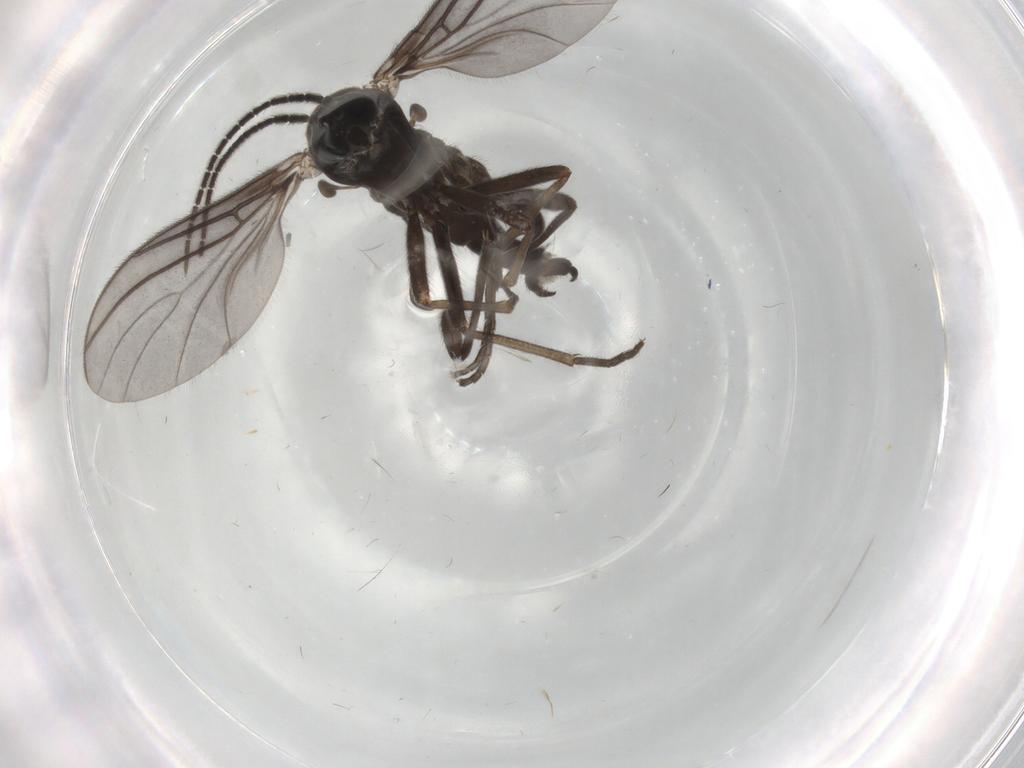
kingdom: Animalia
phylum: Arthropoda
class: Insecta
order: Diptera
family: Sciaridae
